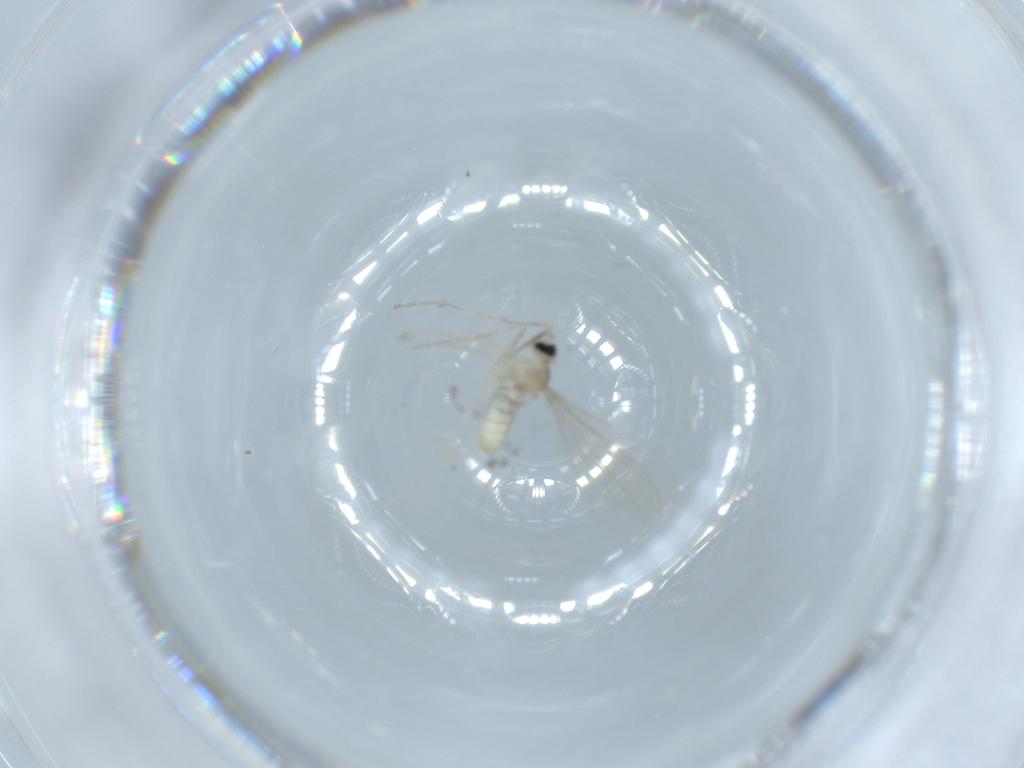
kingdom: Animalia
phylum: Arthropoda
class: Insecta
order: Diptera
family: Cecidomyiidae
